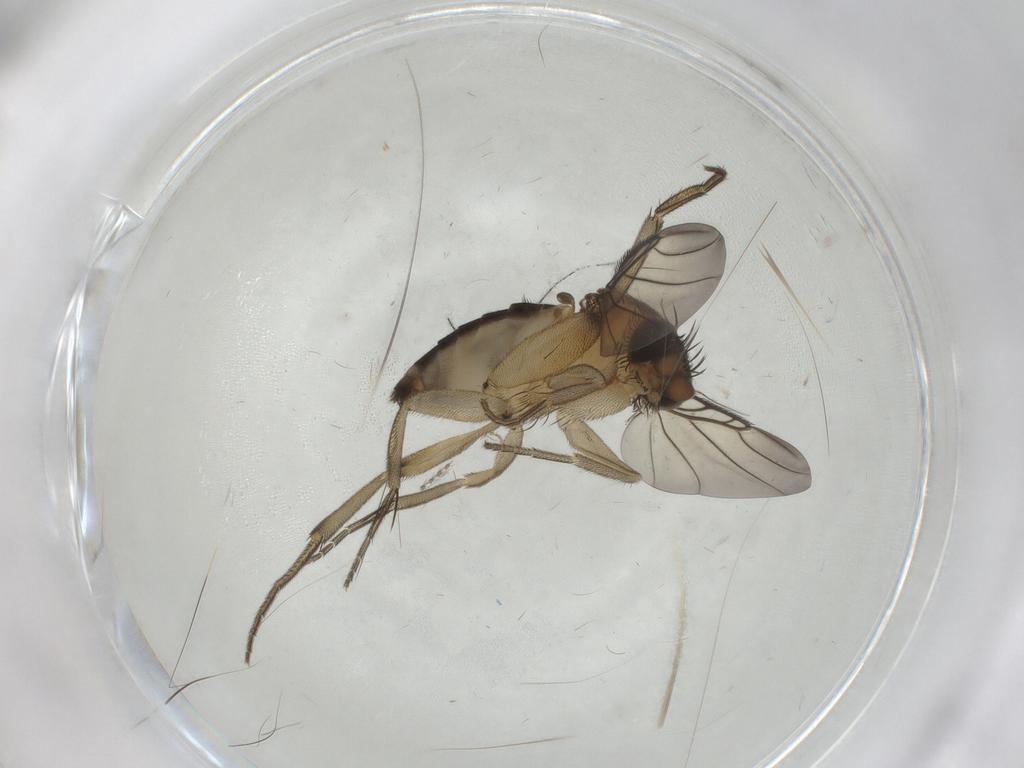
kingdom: Animalia
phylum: Arthropoda
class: Insecta
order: Diptera
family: Phoridae
